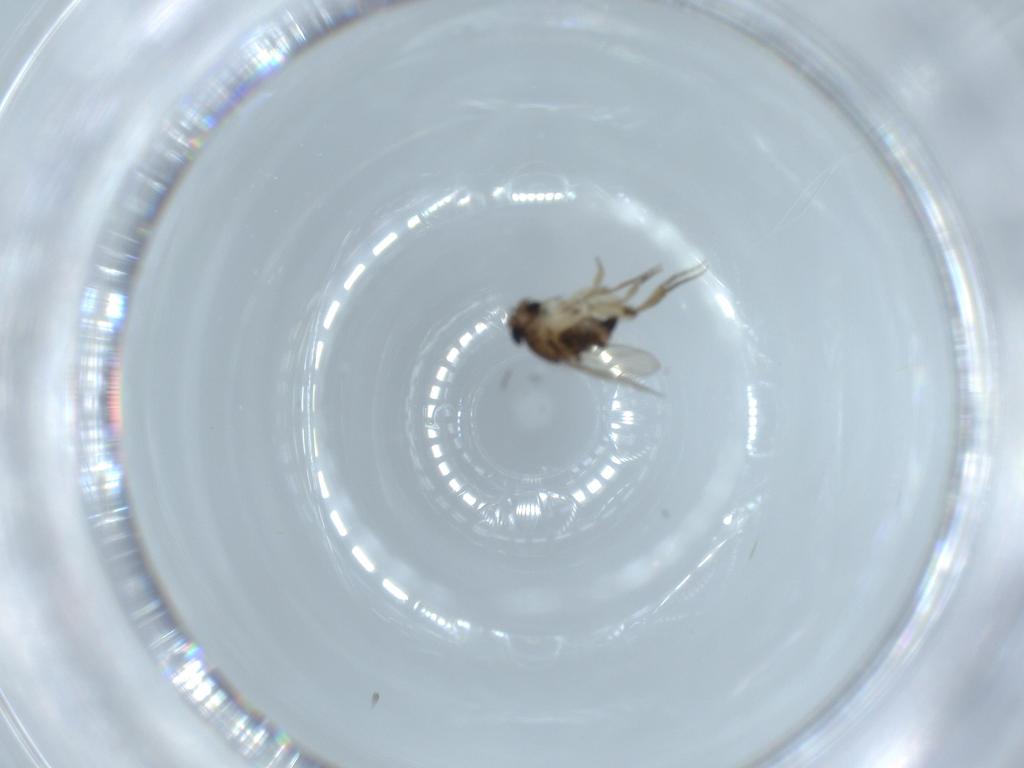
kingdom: Animalia
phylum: Arthropoda
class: Insecta
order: Diptera
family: Phoridae
